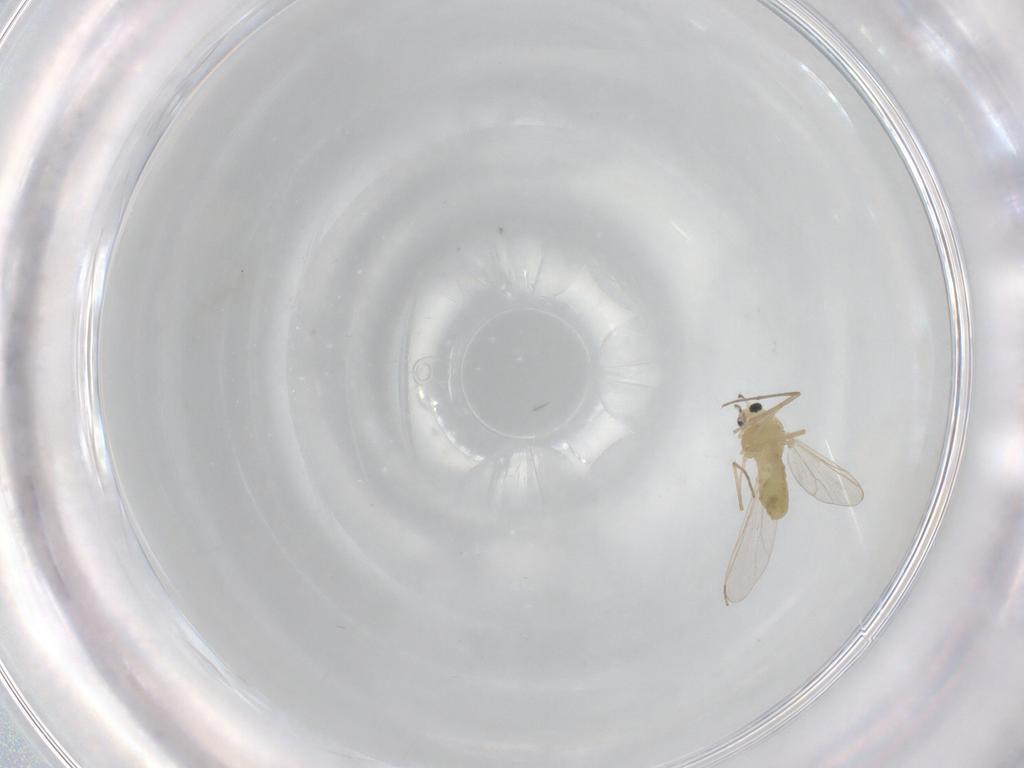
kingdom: Animalia
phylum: Arthropoda
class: Insecta
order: Diptera
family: Chironomidae
